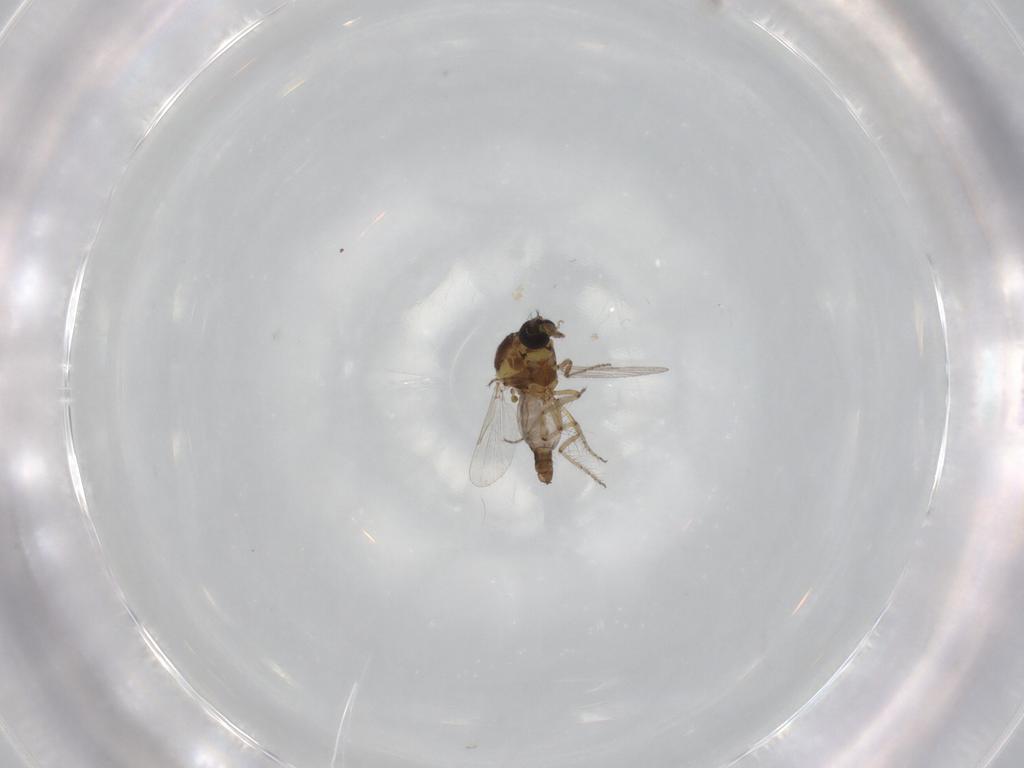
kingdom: Animalia
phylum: Arthropoda
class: Insecta
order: Diptera
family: Ceratopogonidae
